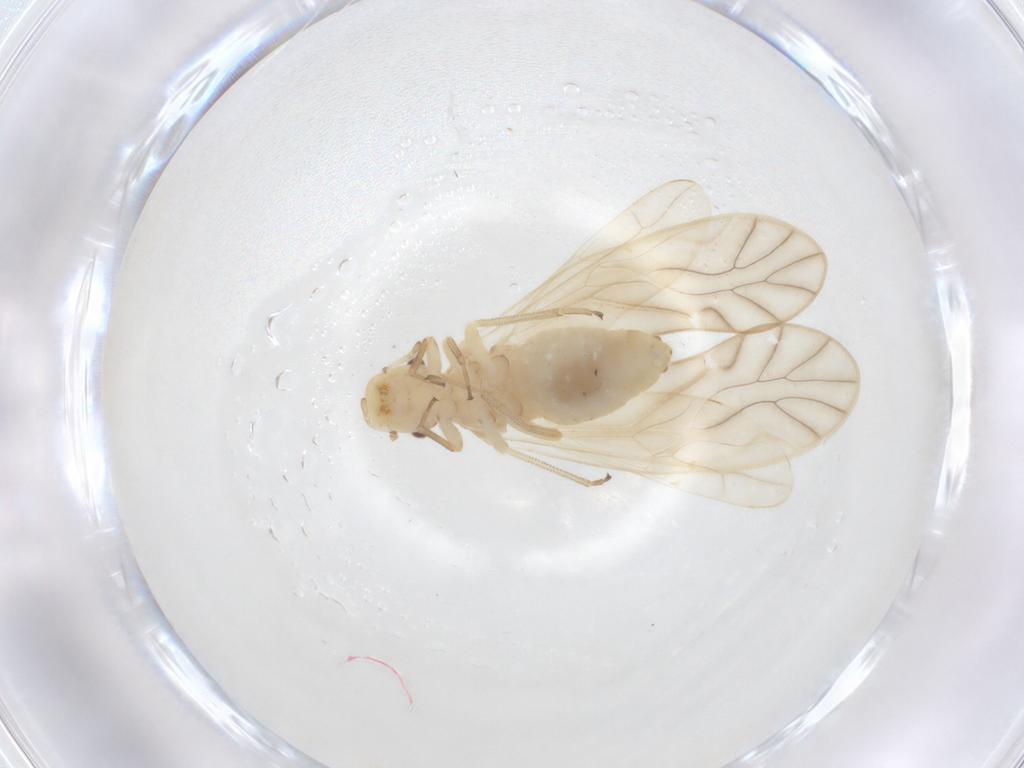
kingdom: Animalia
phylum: Arthropoda
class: Insecta
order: Psocodea
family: Caeciliusidae
